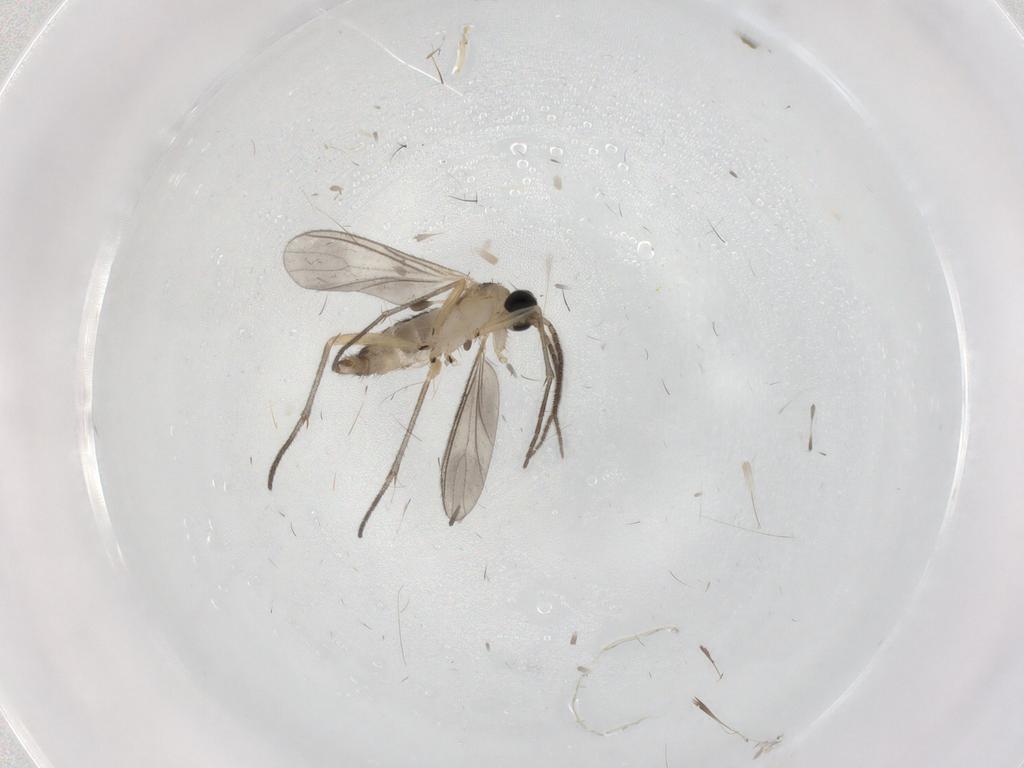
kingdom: Animalia
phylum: Arthropoda
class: Insecta
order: Diptera
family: Sciaridae
